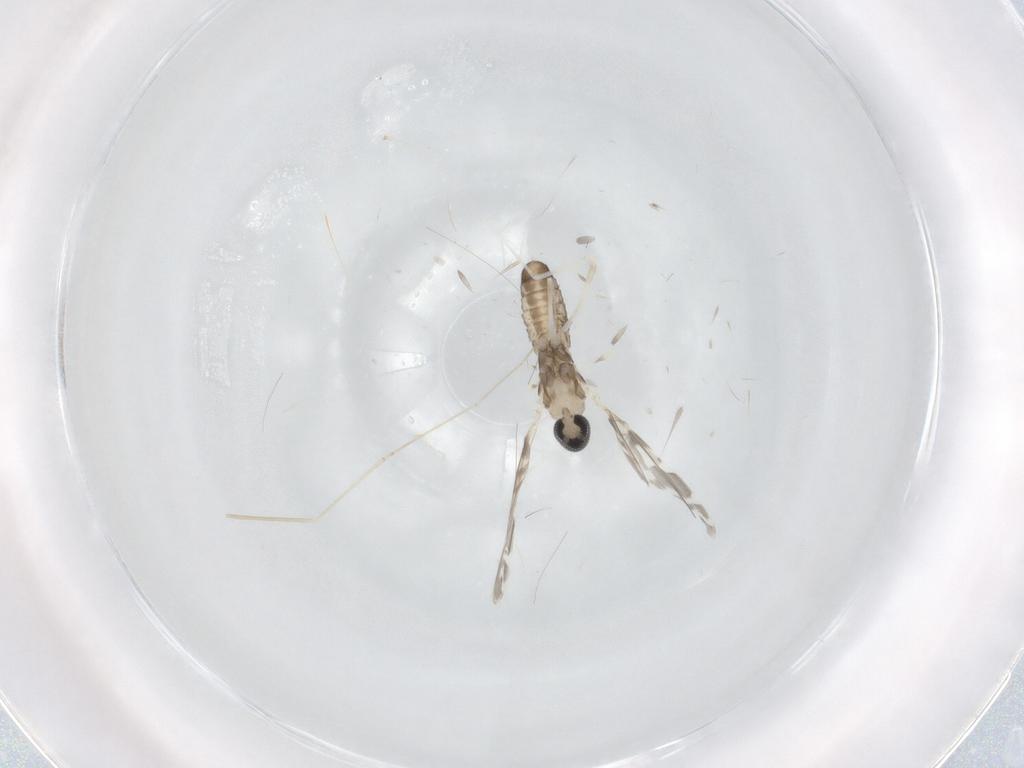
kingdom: Animalia
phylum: Arthropoda
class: Insecta
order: Diptera
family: Cecidomyiidae
